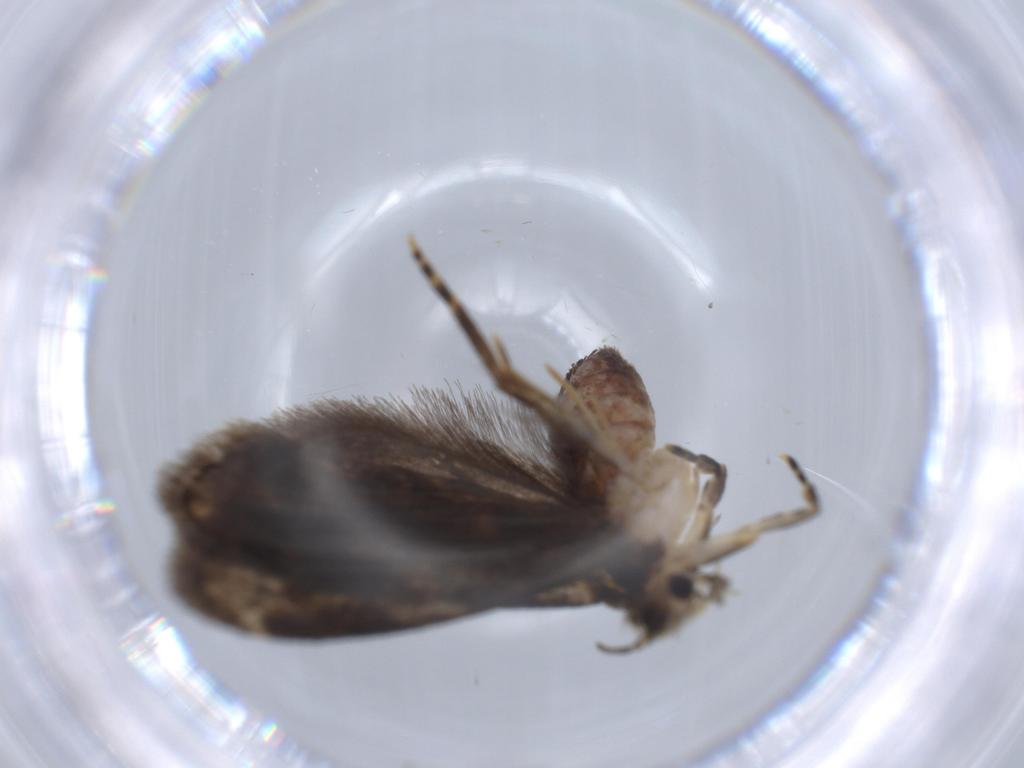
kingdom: Animalia
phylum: Arthropoda
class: Insecta
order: Lepidoptera
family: Tineidae
